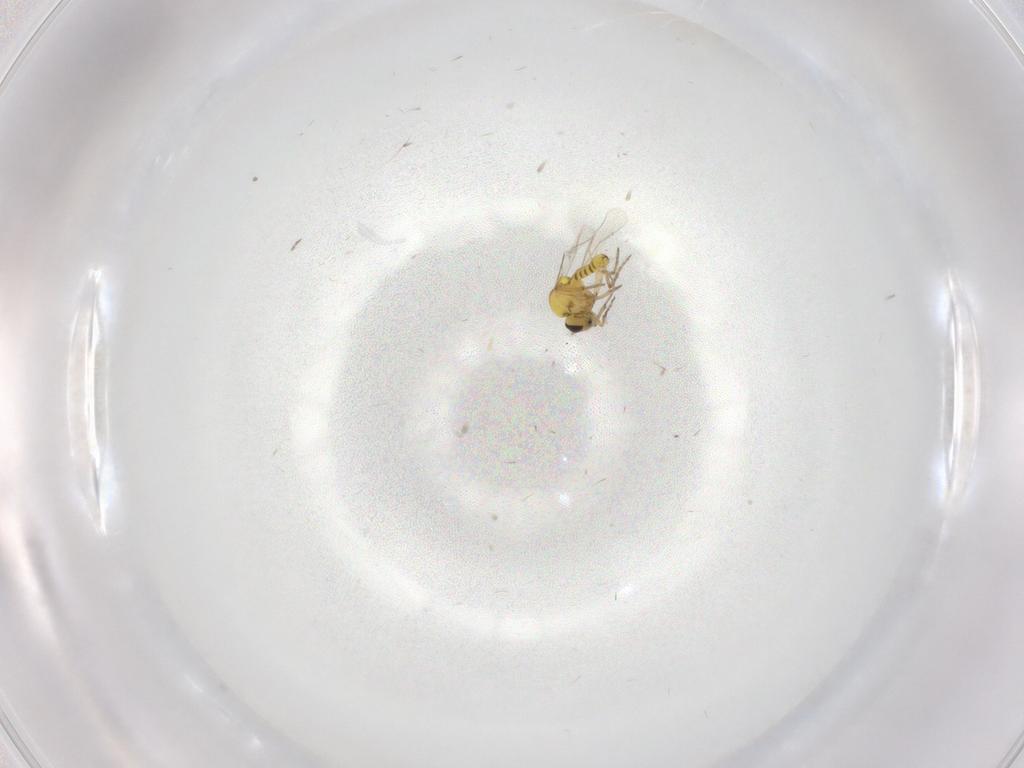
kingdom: Animalia
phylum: Arthropoda
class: Insecta
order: Diptera
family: Ceratopogonidae
